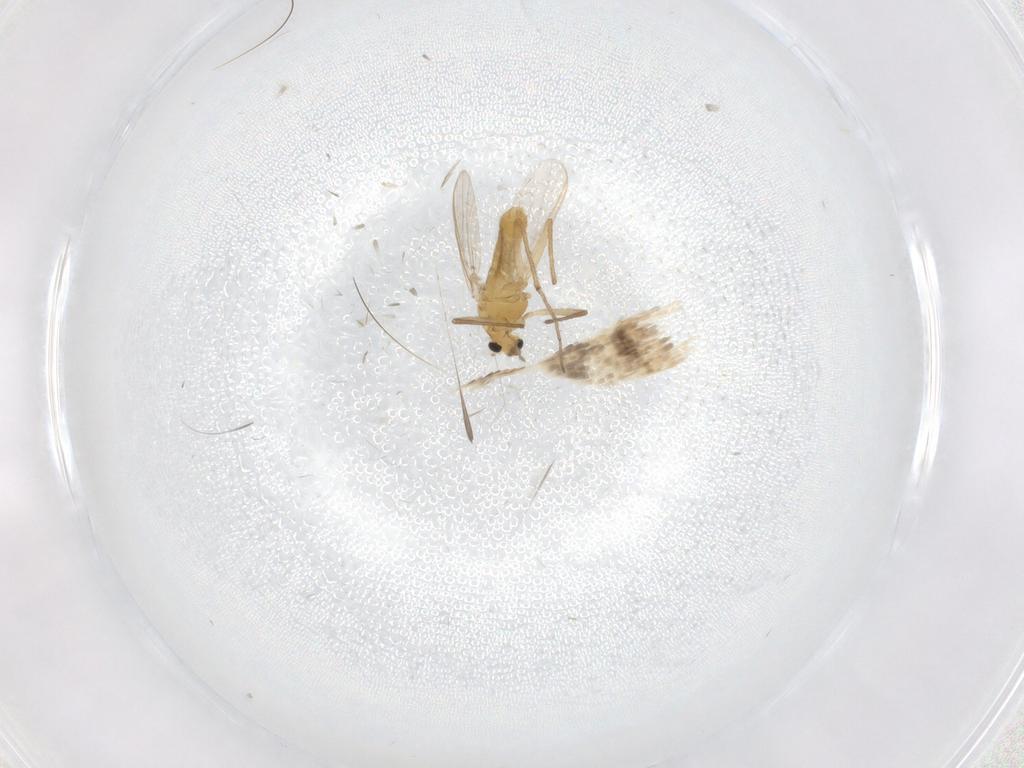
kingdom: Animalia
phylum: Arthropoda
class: Insecta
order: Diptera
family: Chironomidae
